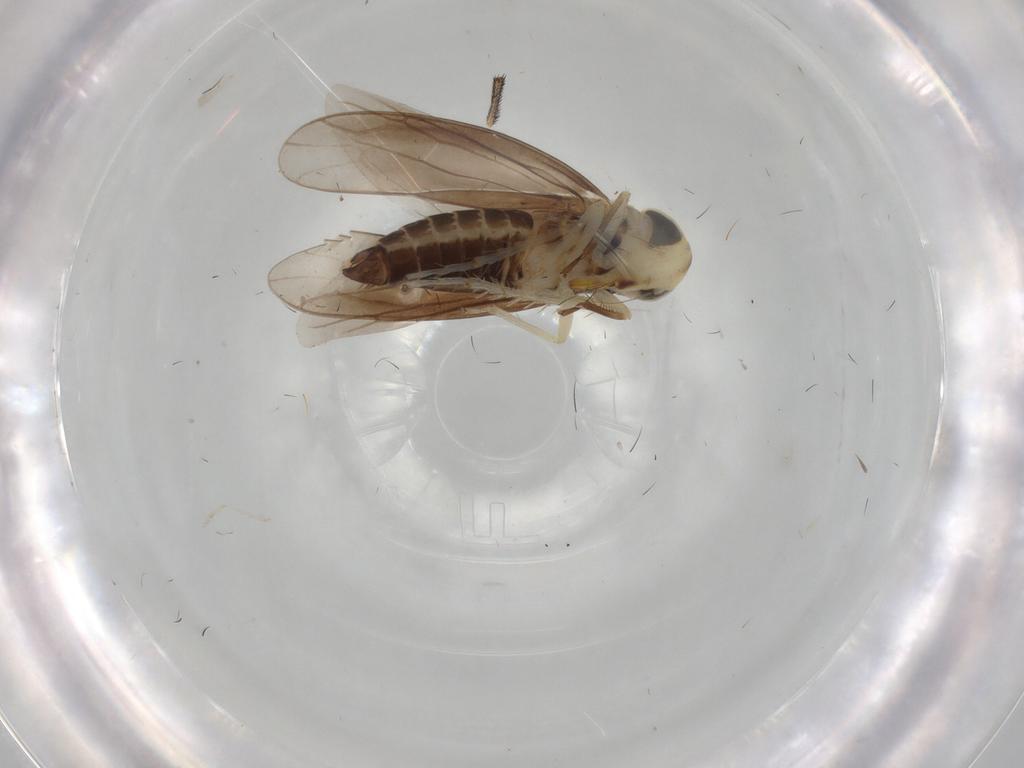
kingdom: Animalia
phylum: Arthropoda
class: Insecta
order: Hemiptera
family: Cicadellidae
